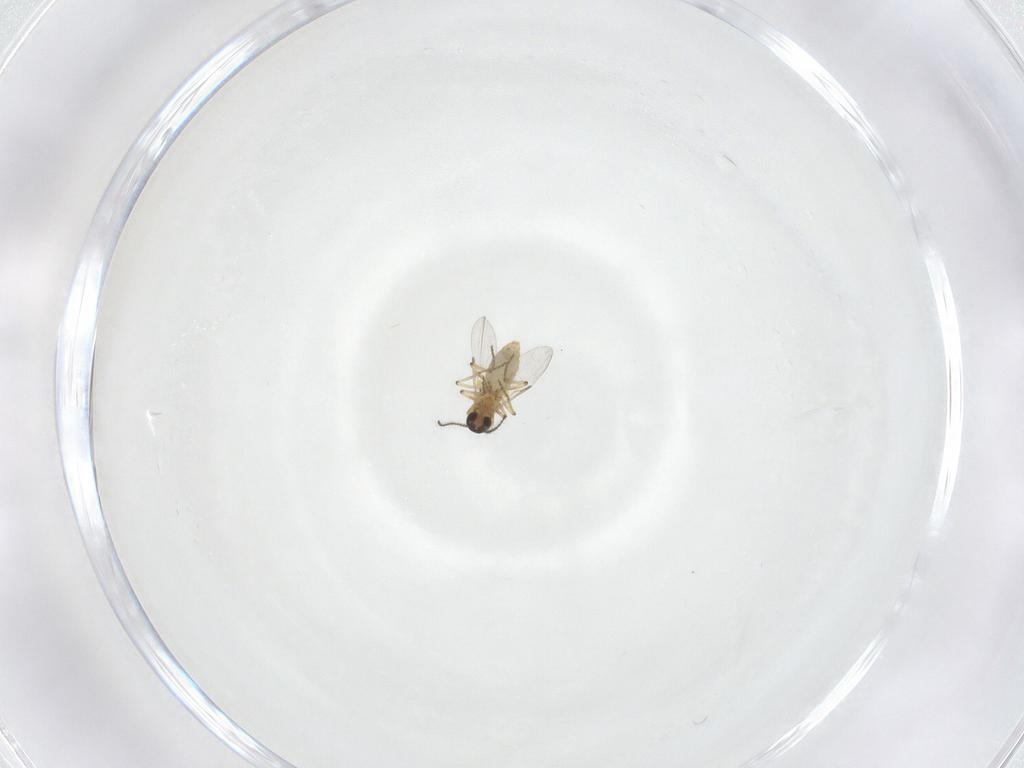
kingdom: Animalia
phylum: Arthropoda
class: Insecta
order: Diptera
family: Ceratopogonidae
